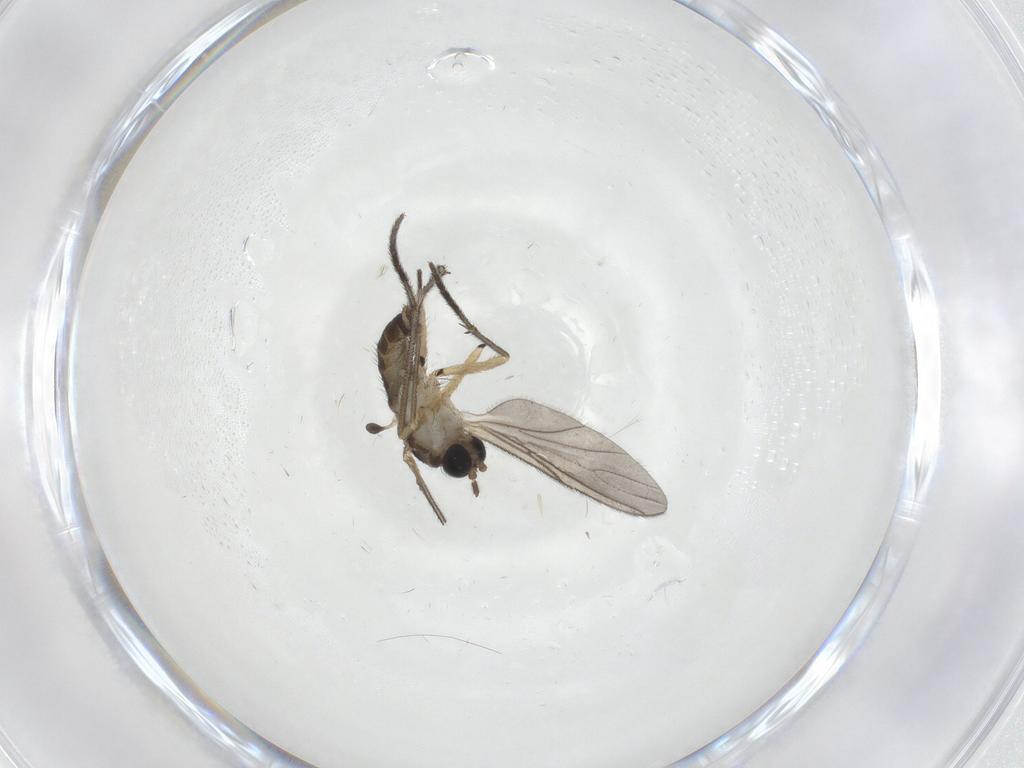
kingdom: Animalia
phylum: Arthropoda
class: Insecta
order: Diptera
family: Sciaridae
